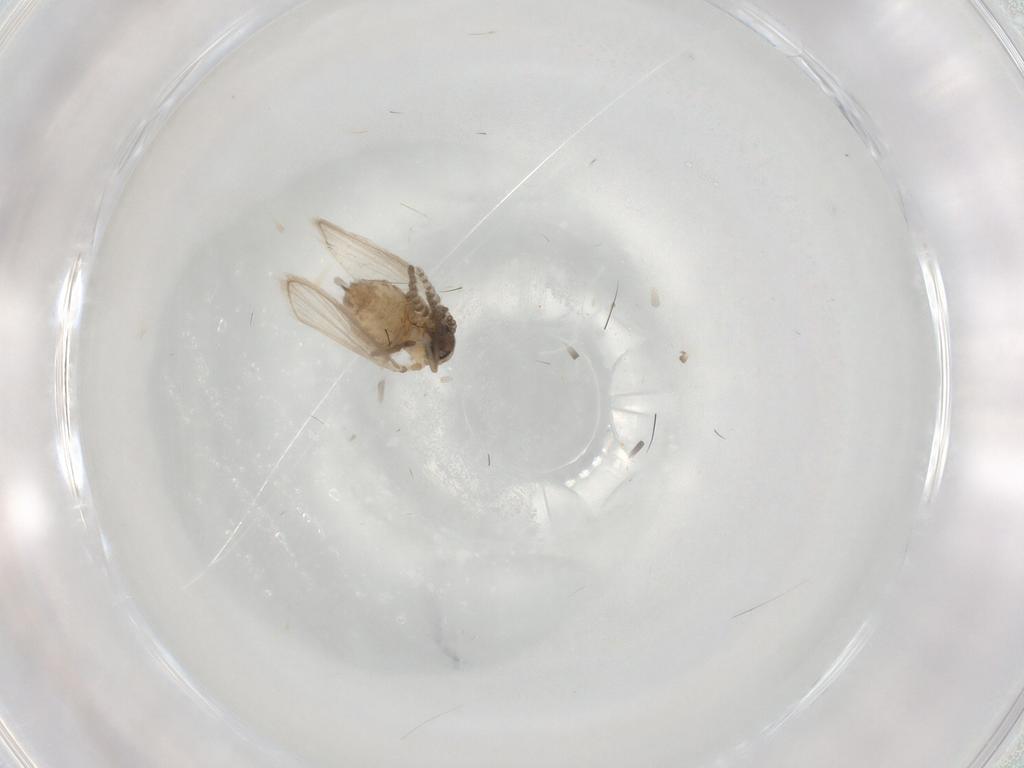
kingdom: Animalia
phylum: Arthropoda
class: Insecta
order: Diptera
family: Psychodidae
